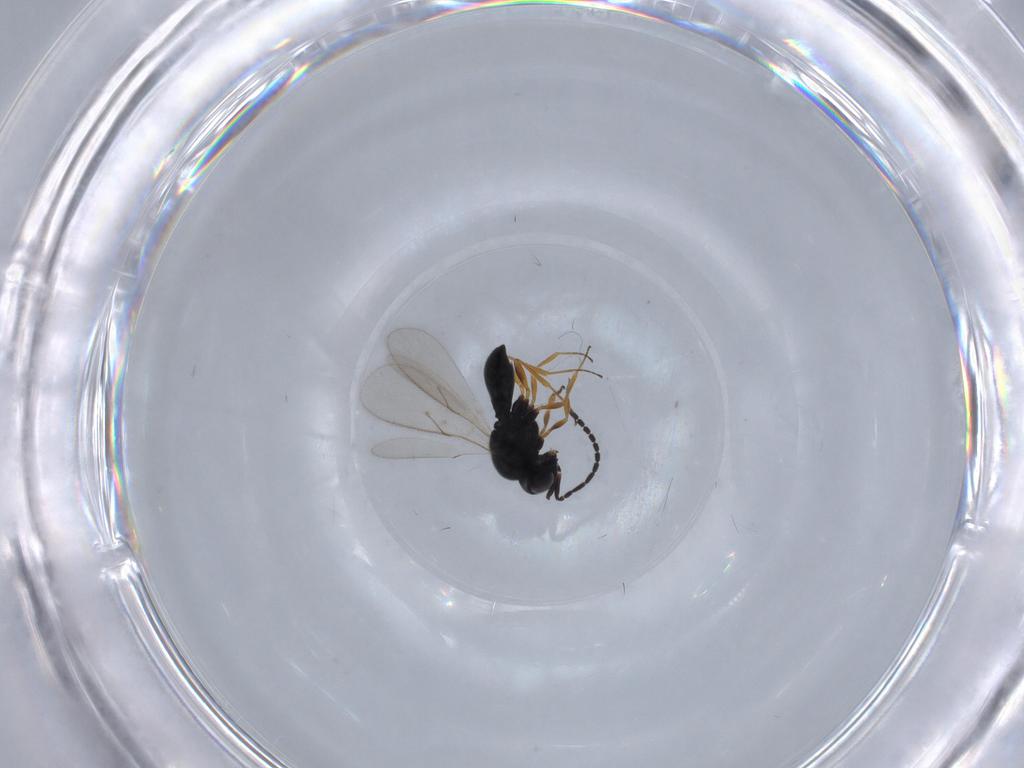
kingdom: Animalia
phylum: Arthropoda
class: Insecta
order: Hymenoptera
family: Scelionidae
